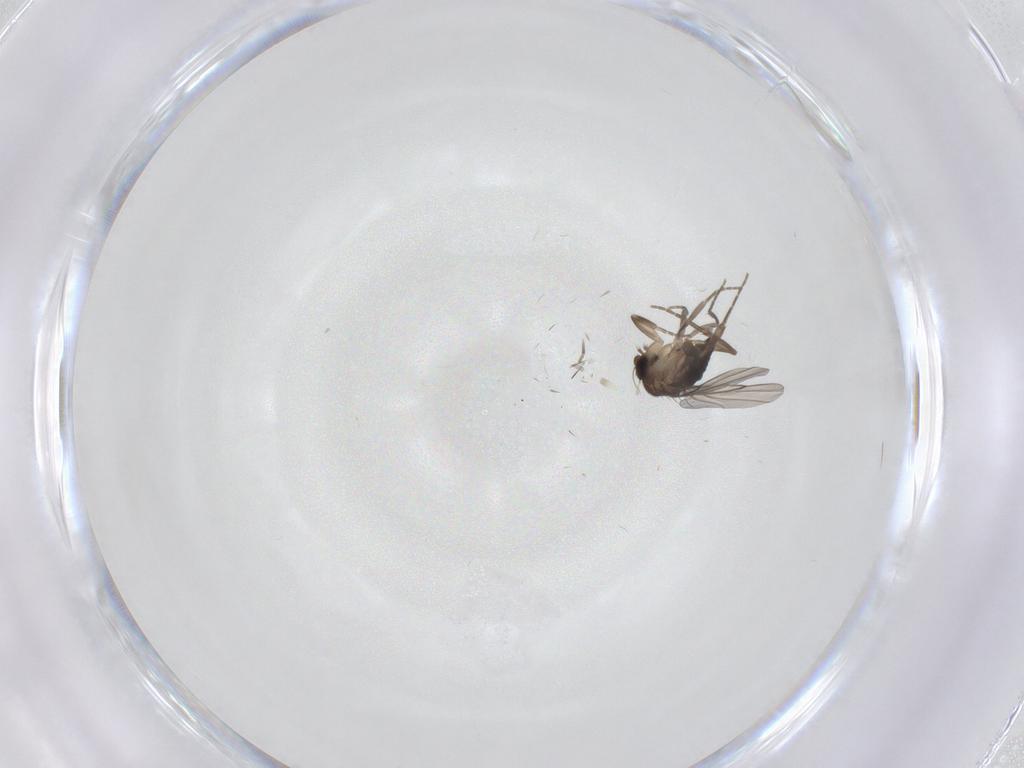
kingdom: Animalia
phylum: Arthropoda
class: Insecta
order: Diptera
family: Phoridae
